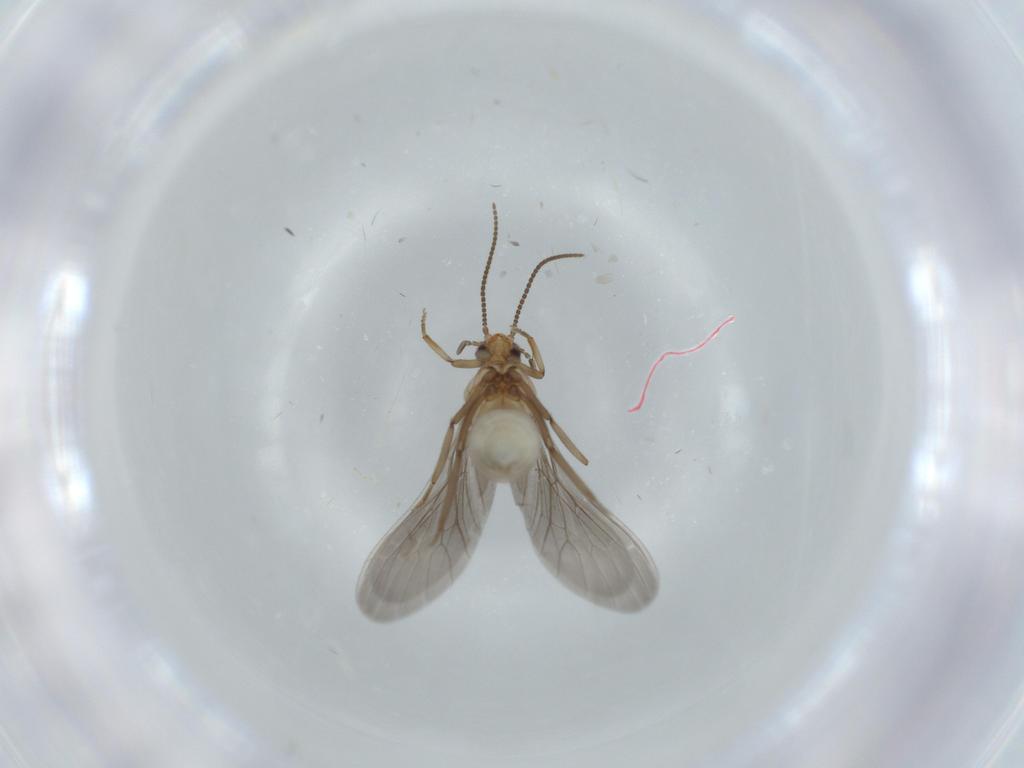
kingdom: Animalia
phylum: Arthropoda
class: Insecta
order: Neuroptera
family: Coniopterygidae
